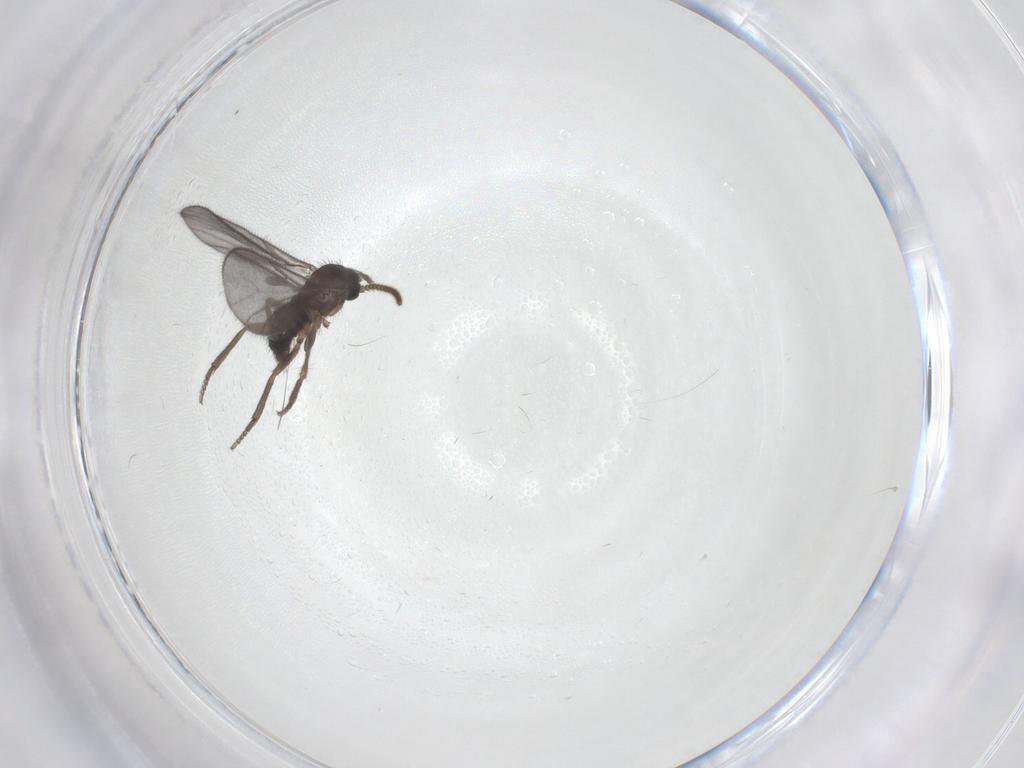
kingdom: Animalia
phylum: Arthropoda
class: Insecta
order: Diptera
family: Sciaridae
